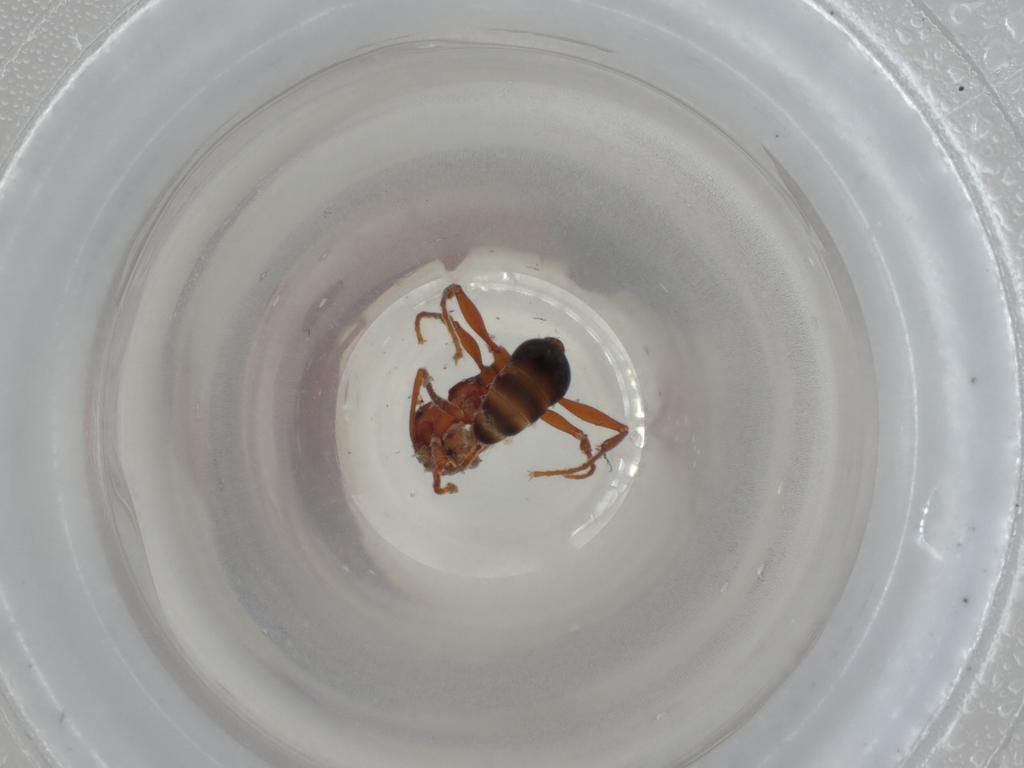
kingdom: Animalia
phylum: Arthropoda
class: Insecta
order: Hymenoptera
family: Formicidae
